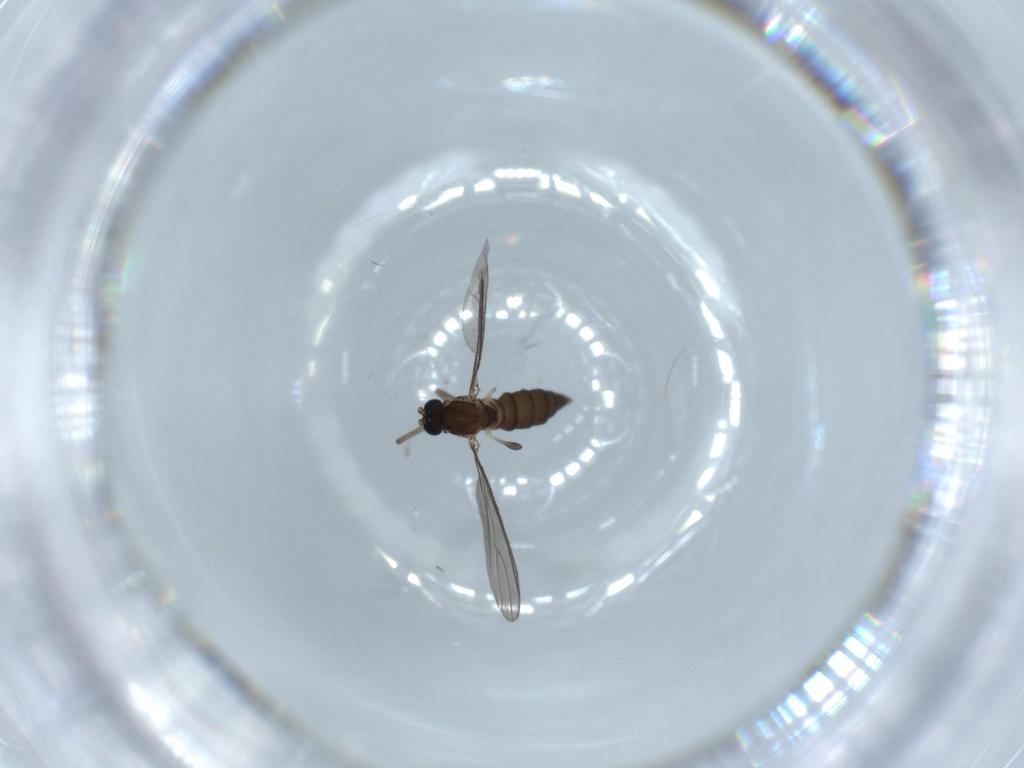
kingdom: Animalia
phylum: Arthropoda
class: Insecta
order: Diptera
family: Sciaridae
